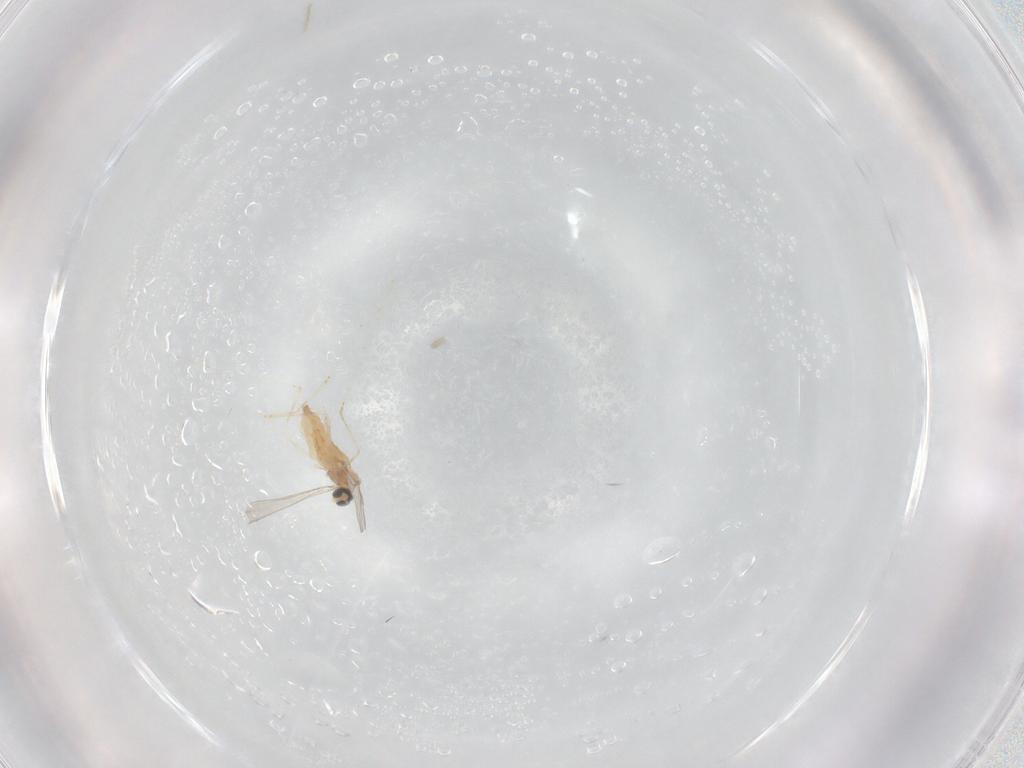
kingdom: Animalia
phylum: Arthropoda
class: Insecta
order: Diptera
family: Cecidomyiidae
